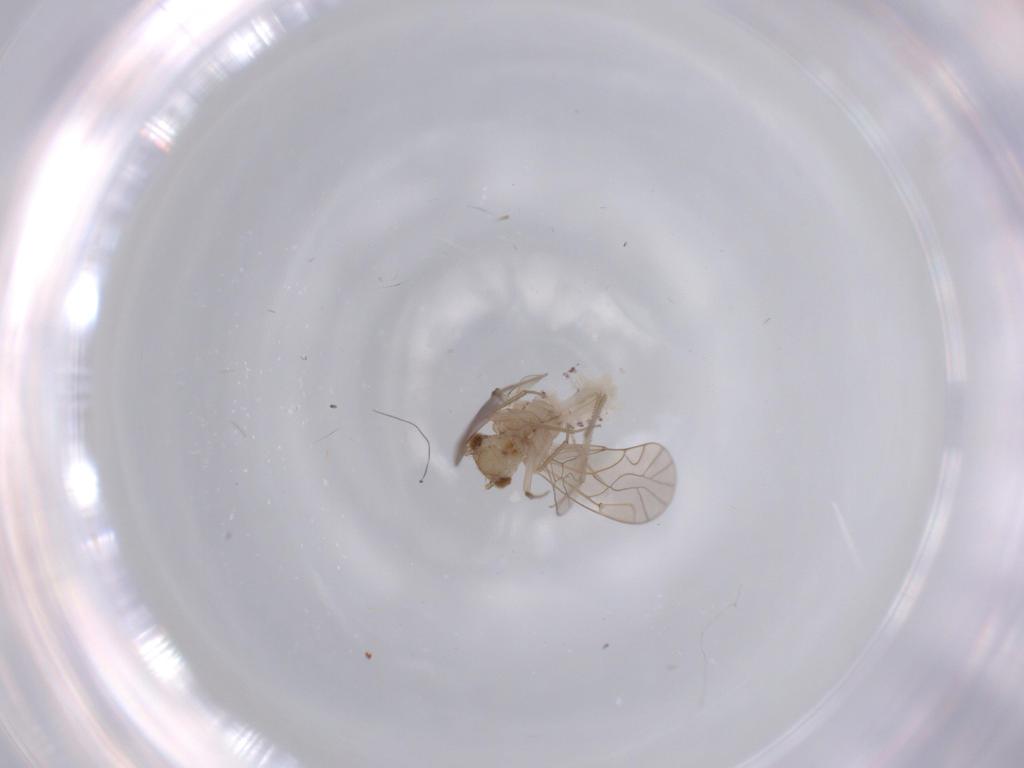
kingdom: Animalia
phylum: Arthropoda
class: Insecta
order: Psocodea
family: Lachesillidae
